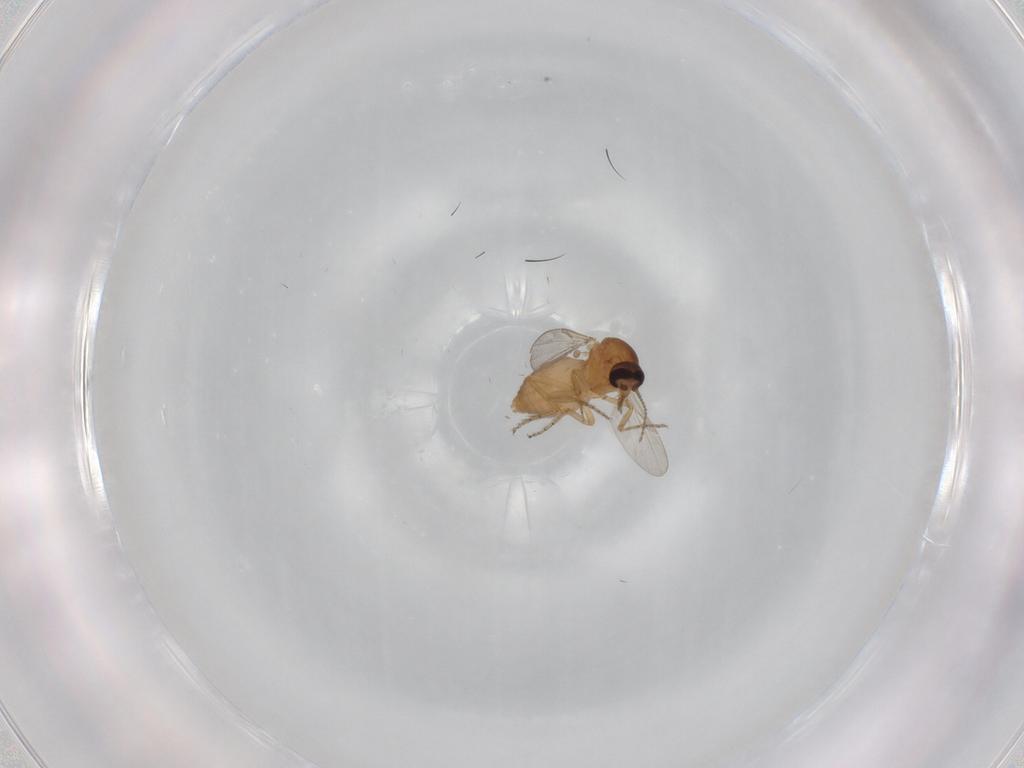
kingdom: Animalia
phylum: Arthropoda
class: Insecta
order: Diptera
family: Ceratopogonidae
